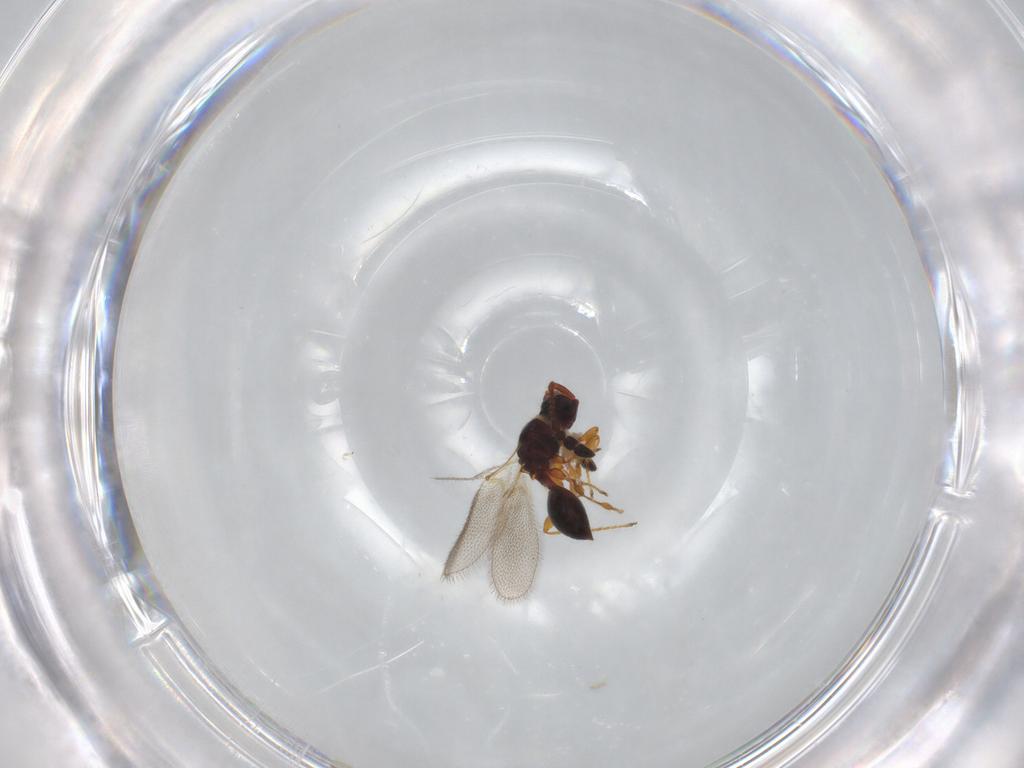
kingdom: Animalia
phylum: Arthropoda
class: Insecta
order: Hymenoptera
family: Diapriidae
